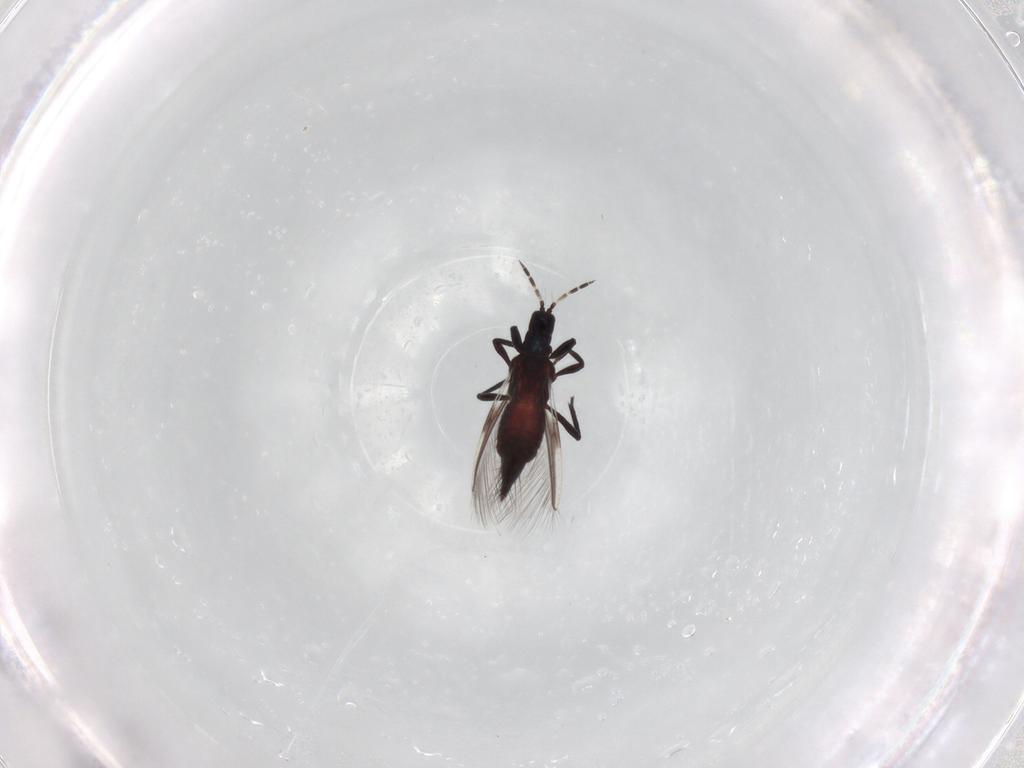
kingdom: Animalia
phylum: Arthropoda
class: Insecta
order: Thysanoptera
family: Aeolothripidae
